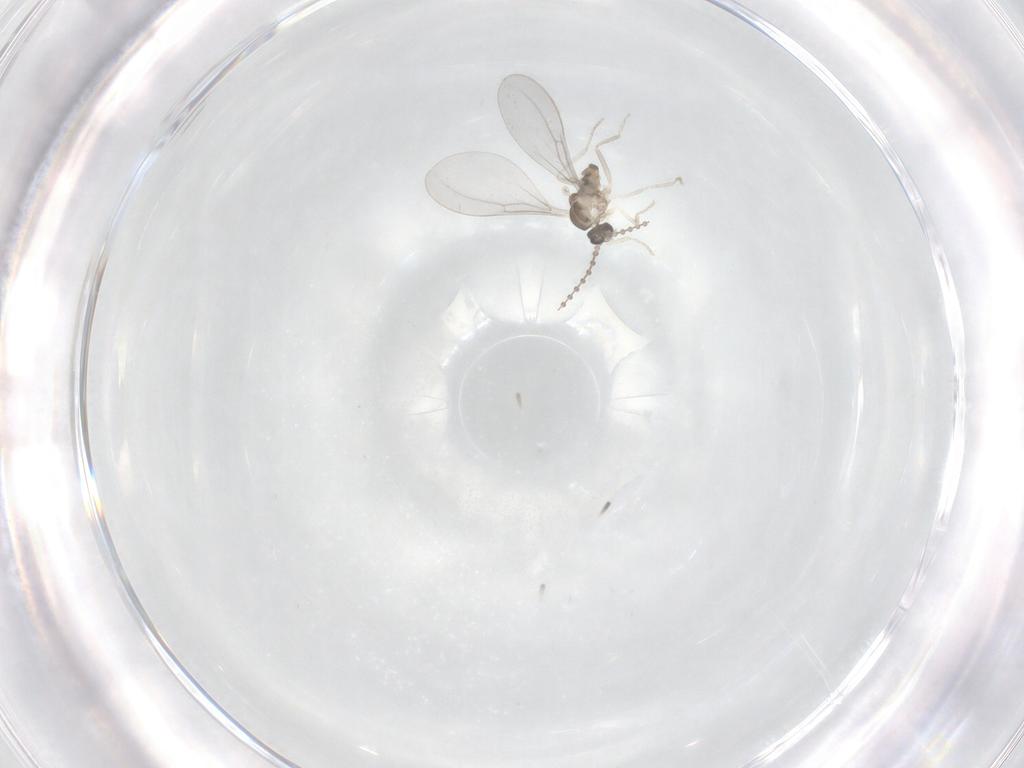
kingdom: Animalia
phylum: Arthropoda
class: Insecta
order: Diptera
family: Cecidomyiidae
